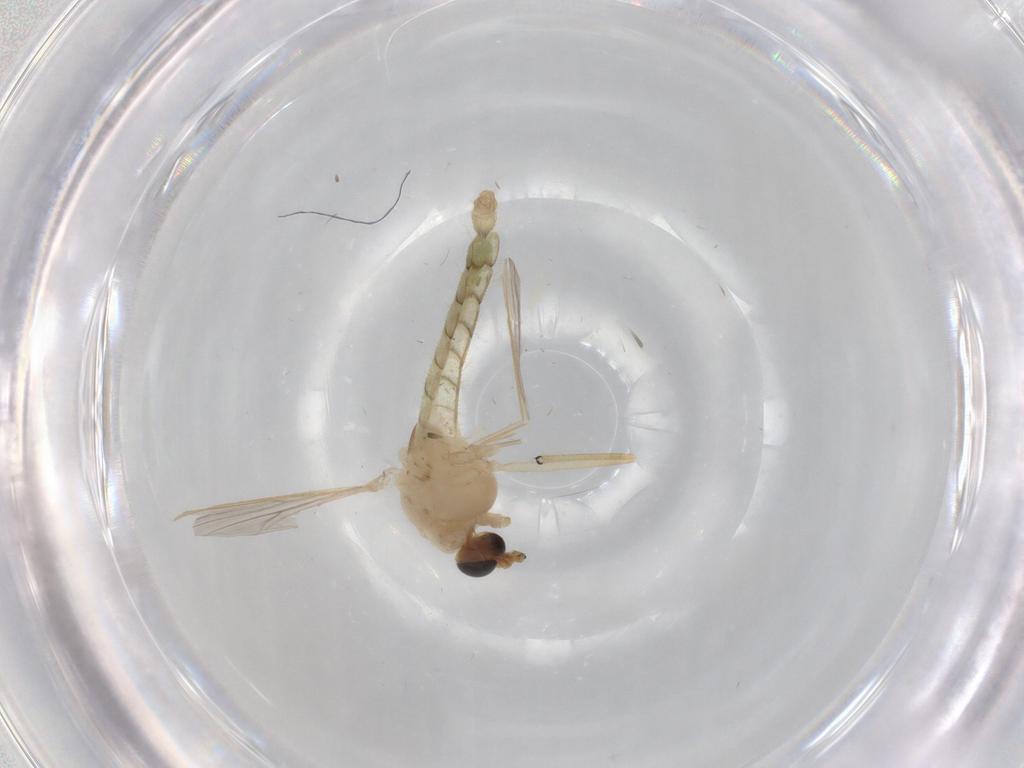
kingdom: Animalia
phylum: Arthropoda
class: Insecta
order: Diptera
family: Chironomidae
